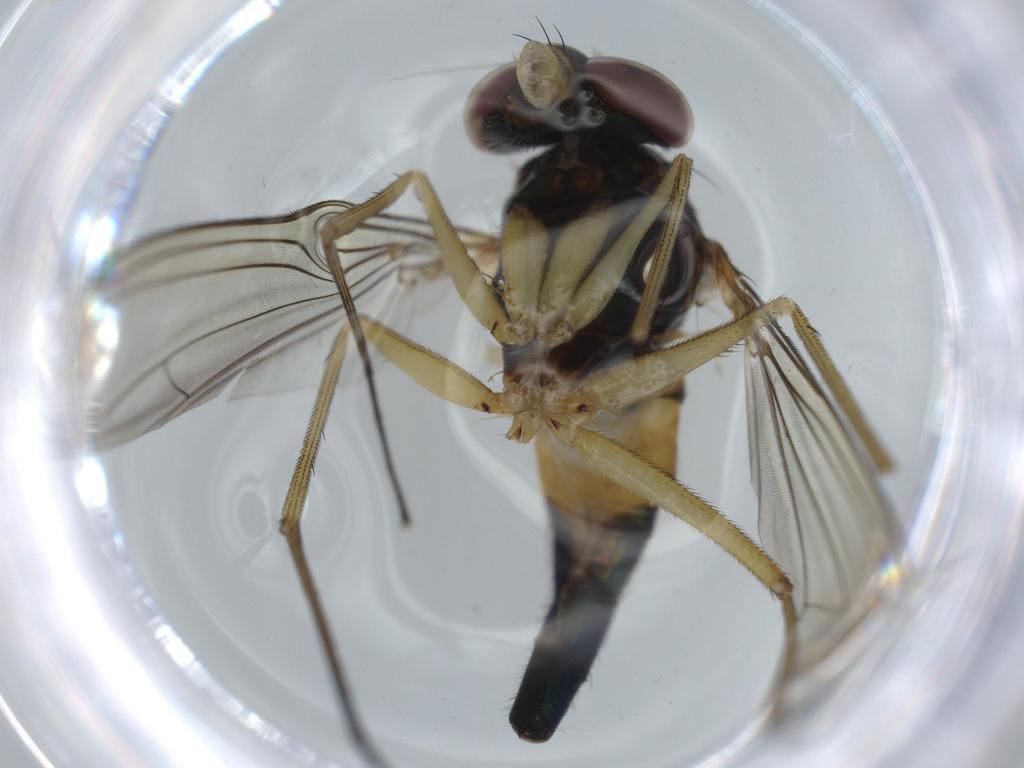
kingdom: Animalia
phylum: Arthropoda
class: Insecta
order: Diptera
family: Dolichopodidae
